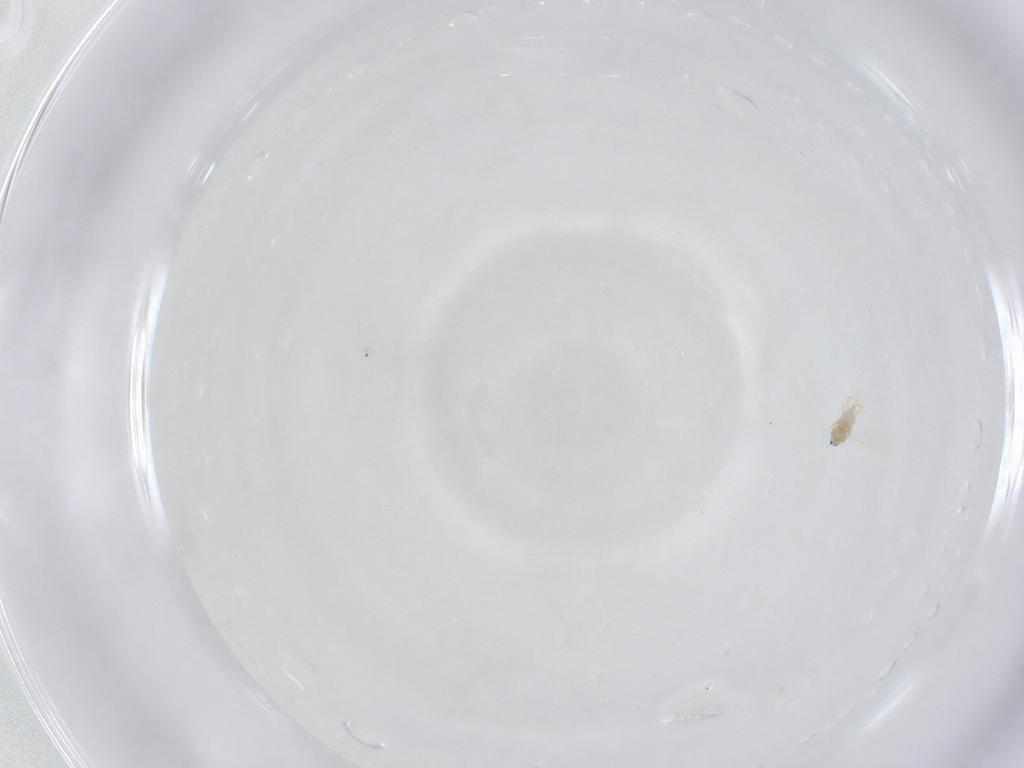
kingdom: Animalia
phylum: Arthropoda
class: Insecta
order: Hemiptera
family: Diaspididae
